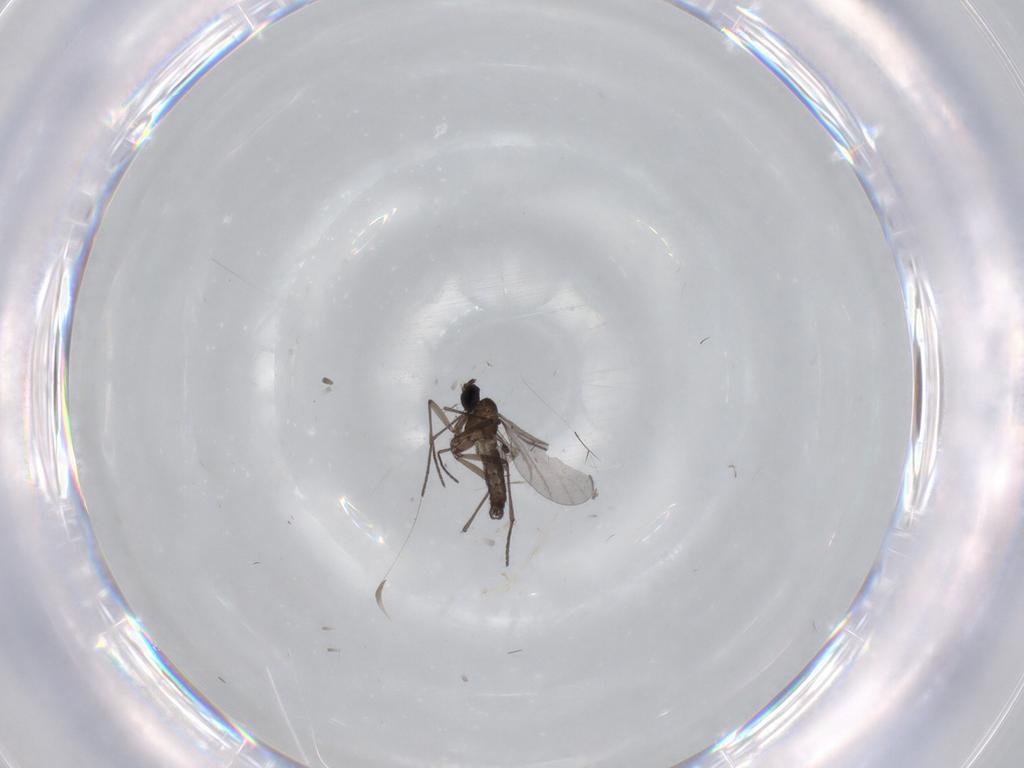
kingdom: Animalia
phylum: Arthropoda
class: Insecta
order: Diptera
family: Cecidomyiidae
